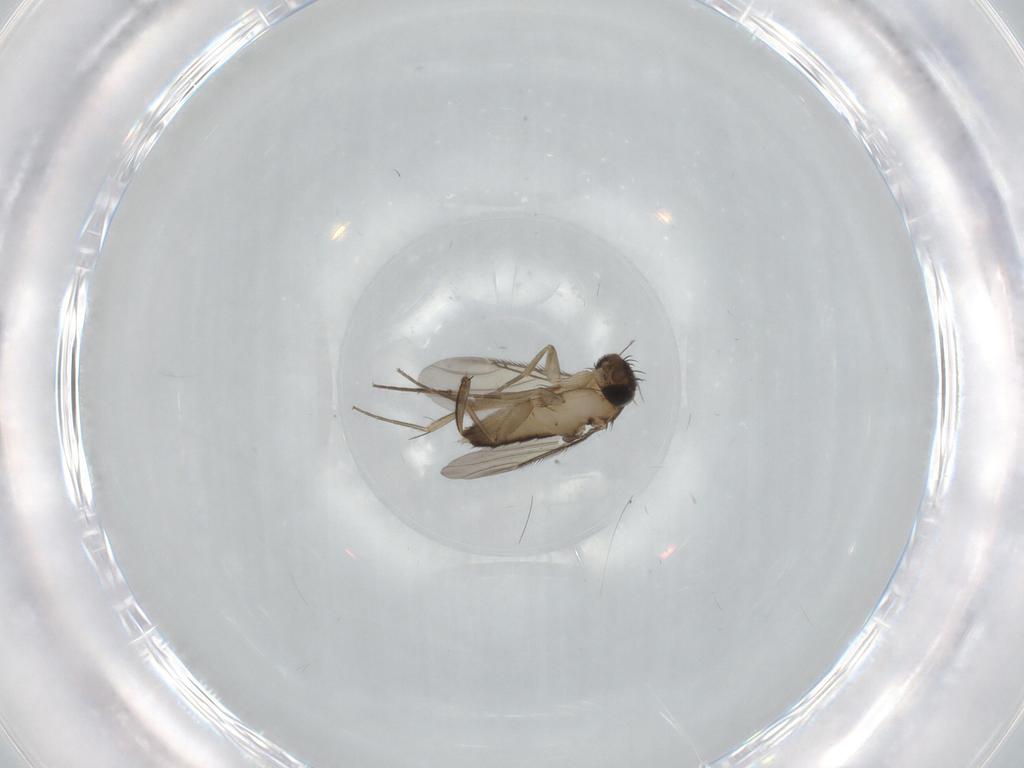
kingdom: Animalia
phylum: Arthropoda
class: Insecta
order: Diptera
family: Phoridae
